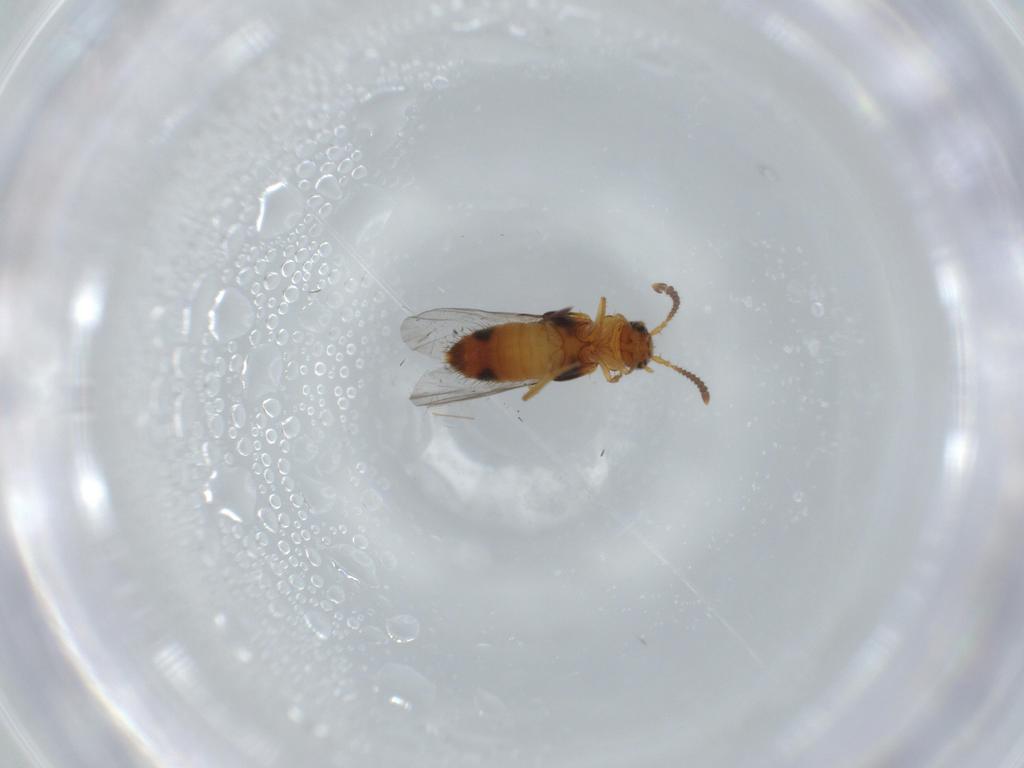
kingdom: Animalia
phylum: Arthropoda
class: Insecta
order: Coleoptera
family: Staphylinidae
